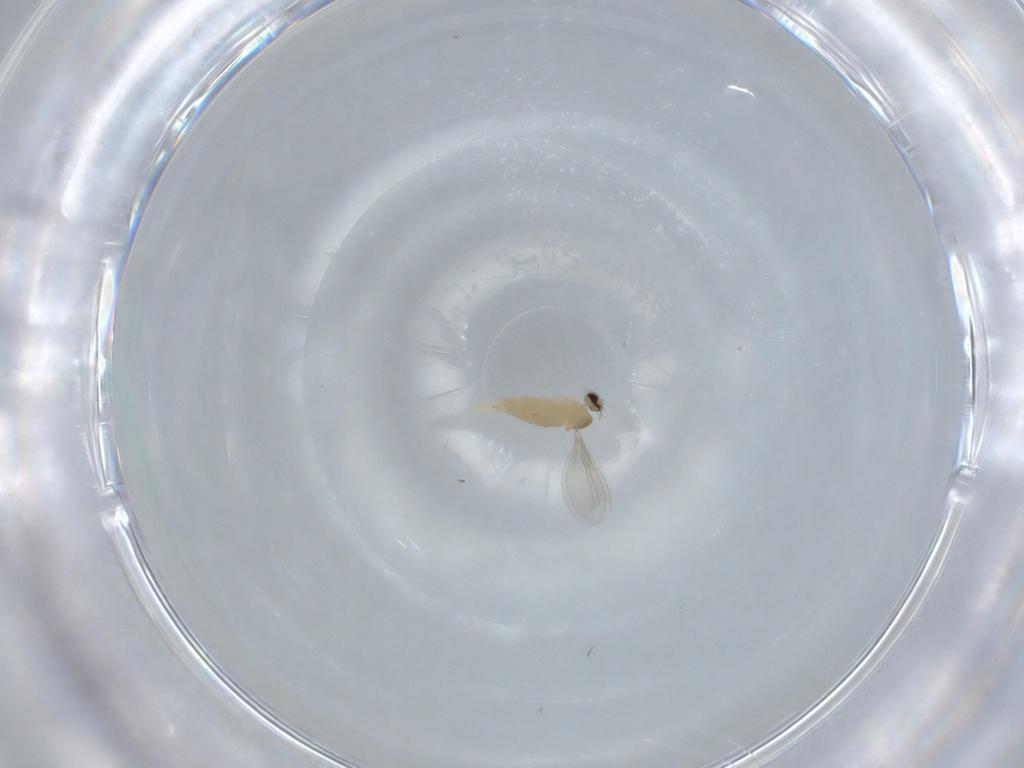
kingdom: Animalia
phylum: Arthropoda
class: Insecta
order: Diptera
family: Cecidomyiidae
